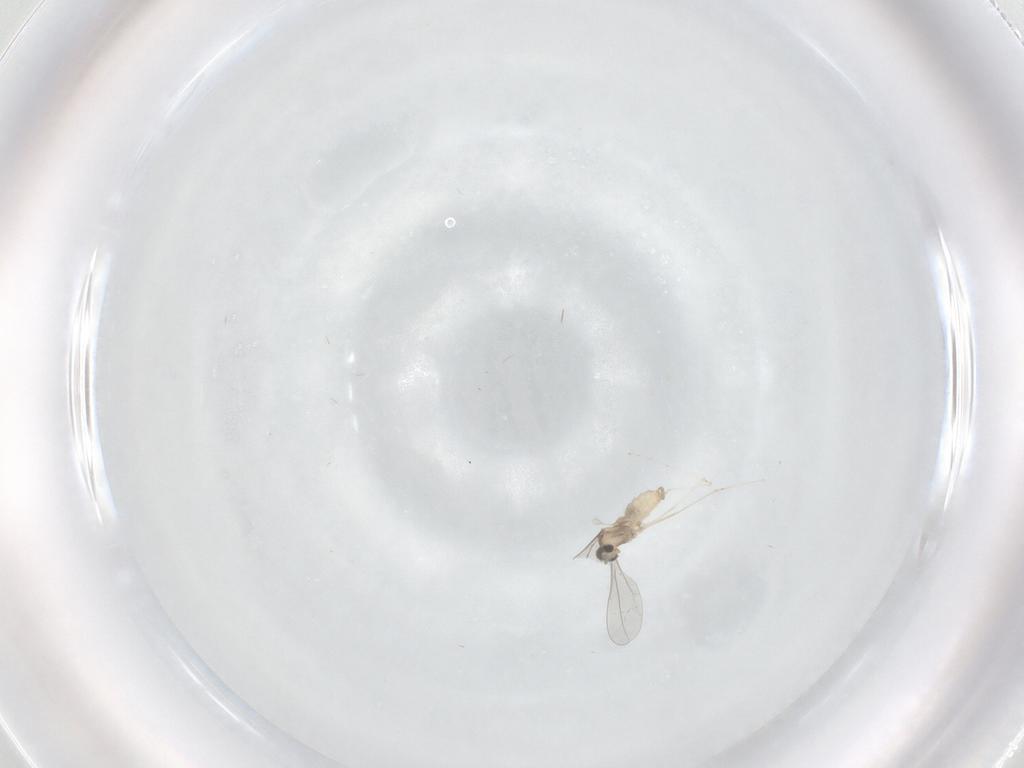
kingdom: Animalia
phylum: Arthropoda
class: Insecta
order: Diptera
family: Cecidomyiidae
